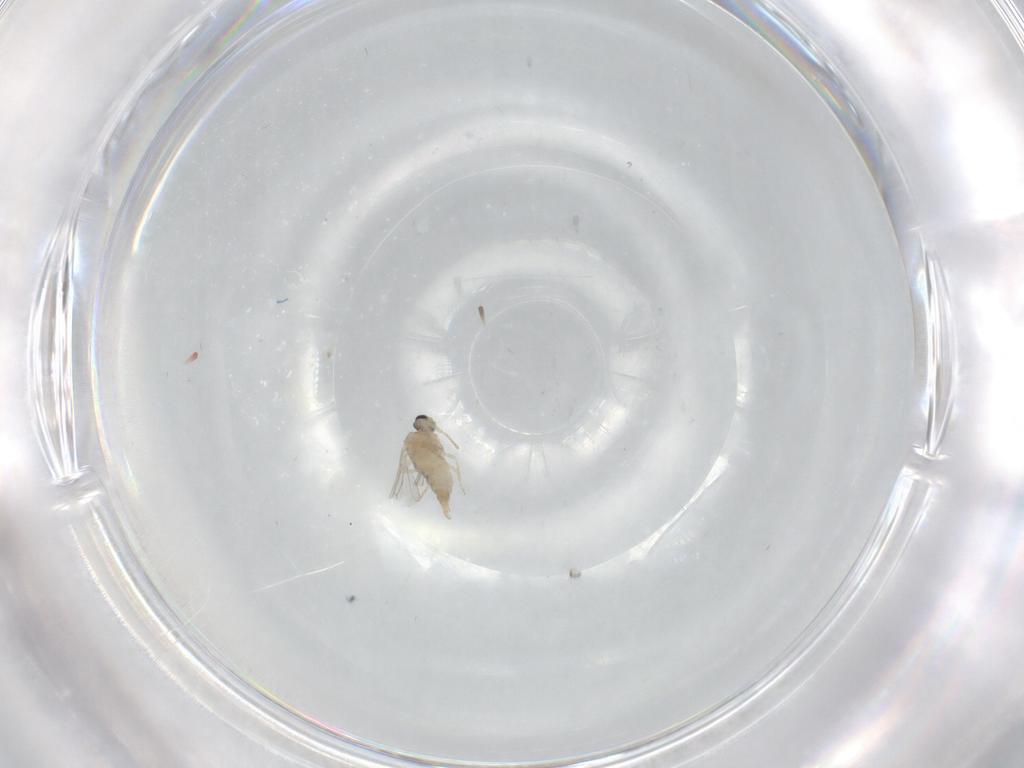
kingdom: Animalia
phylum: Arthropoda
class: Insecta
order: Diptera
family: Cecidomyiidae
